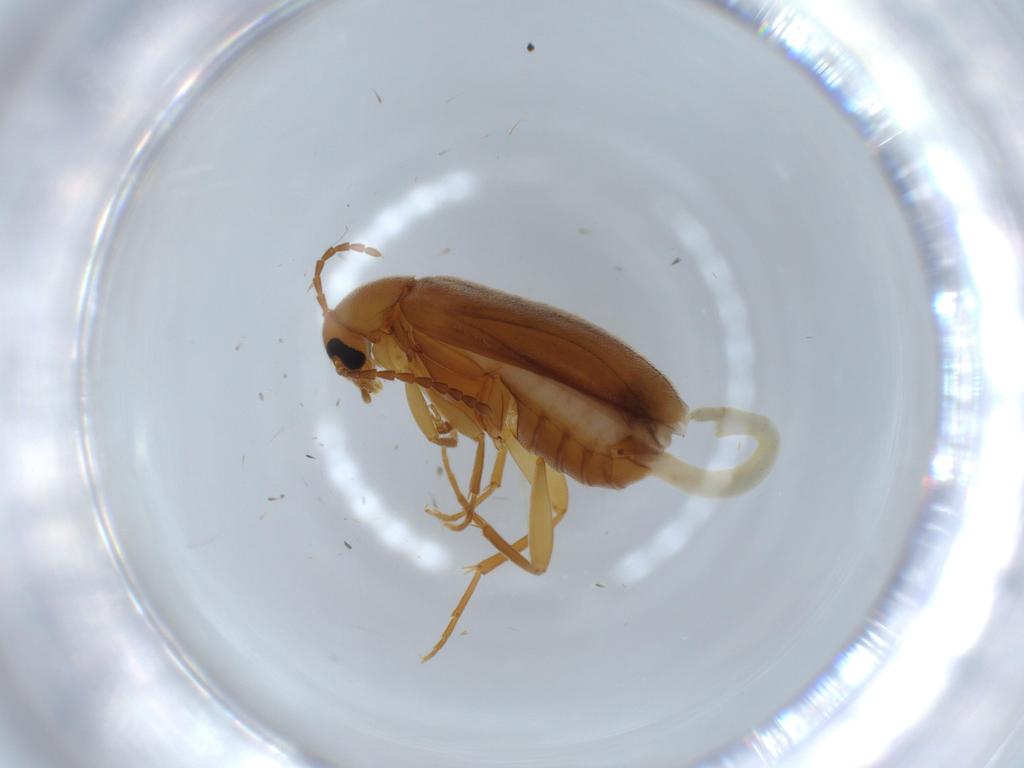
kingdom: Animalia
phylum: Arthropoda
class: Insecta
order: Coleoptera
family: Scraptiidae
